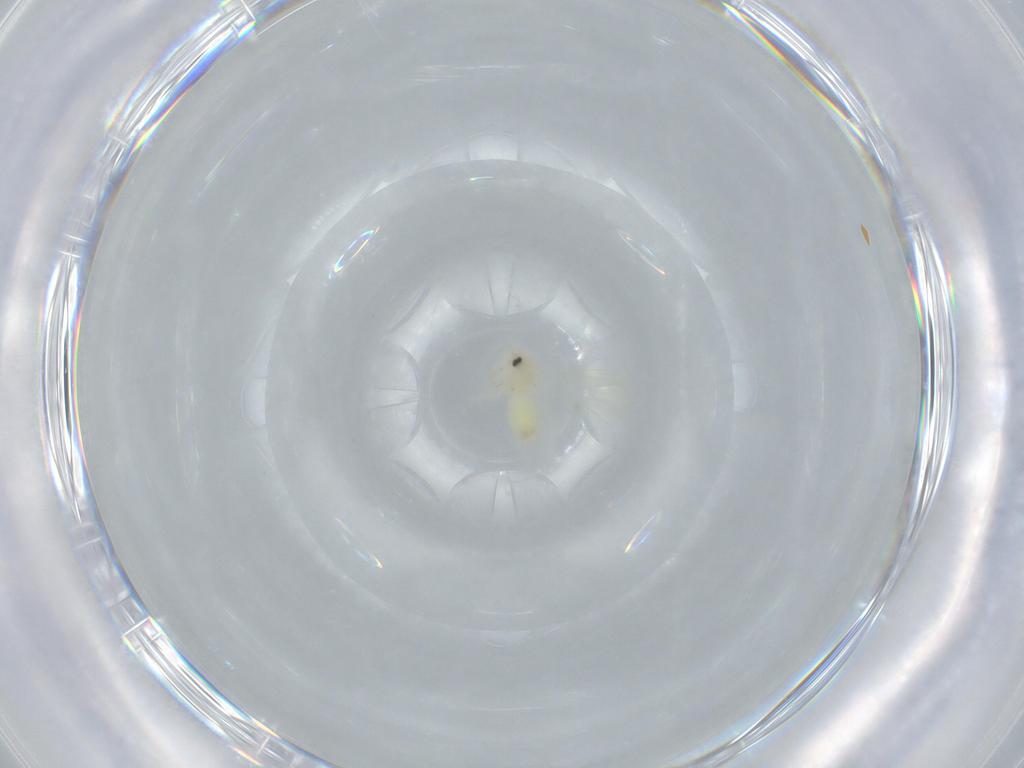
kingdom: Animalia
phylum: Arthropoda
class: Insecta
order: Hemiptera
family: Aleyrodidae
